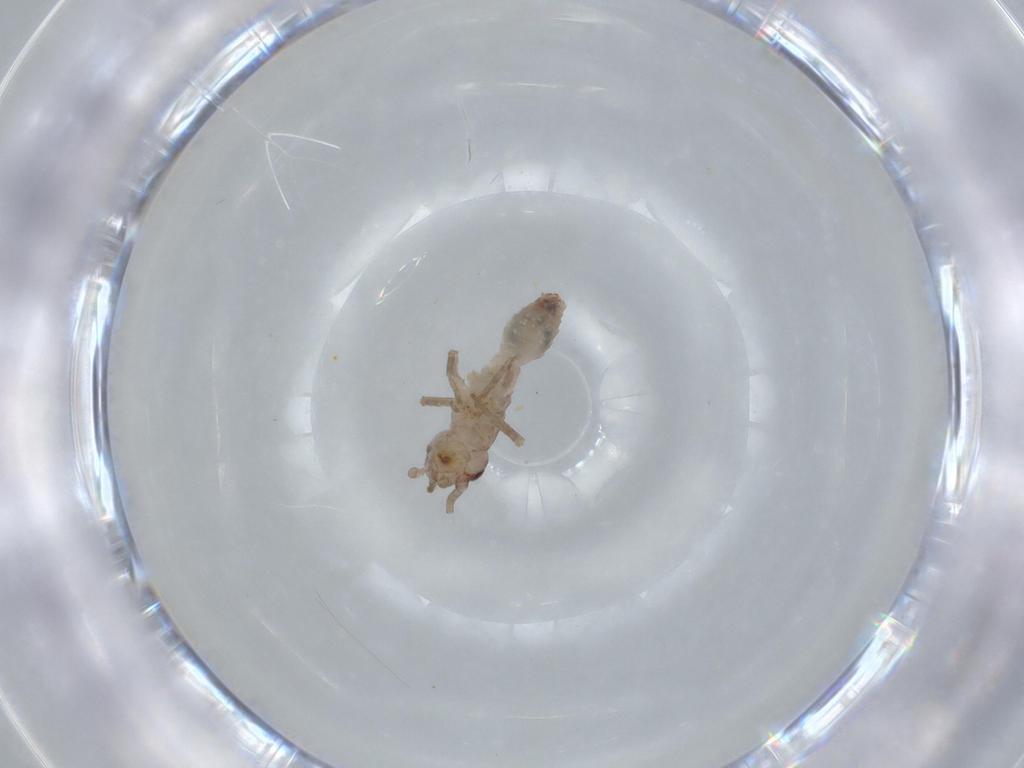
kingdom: Animalia
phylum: Arthropoda
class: Insecta
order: Orthoptera
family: Mogoplistidae
